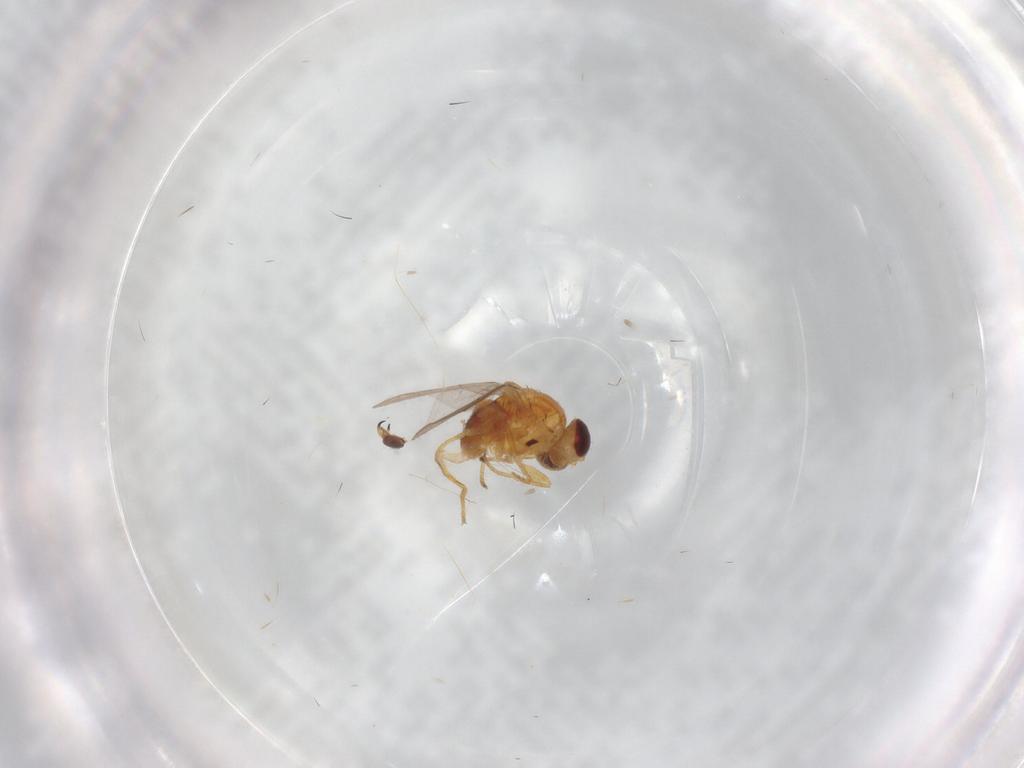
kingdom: Animalia
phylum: Arthropoda
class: Insecta
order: Diptera
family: Chloropidae
